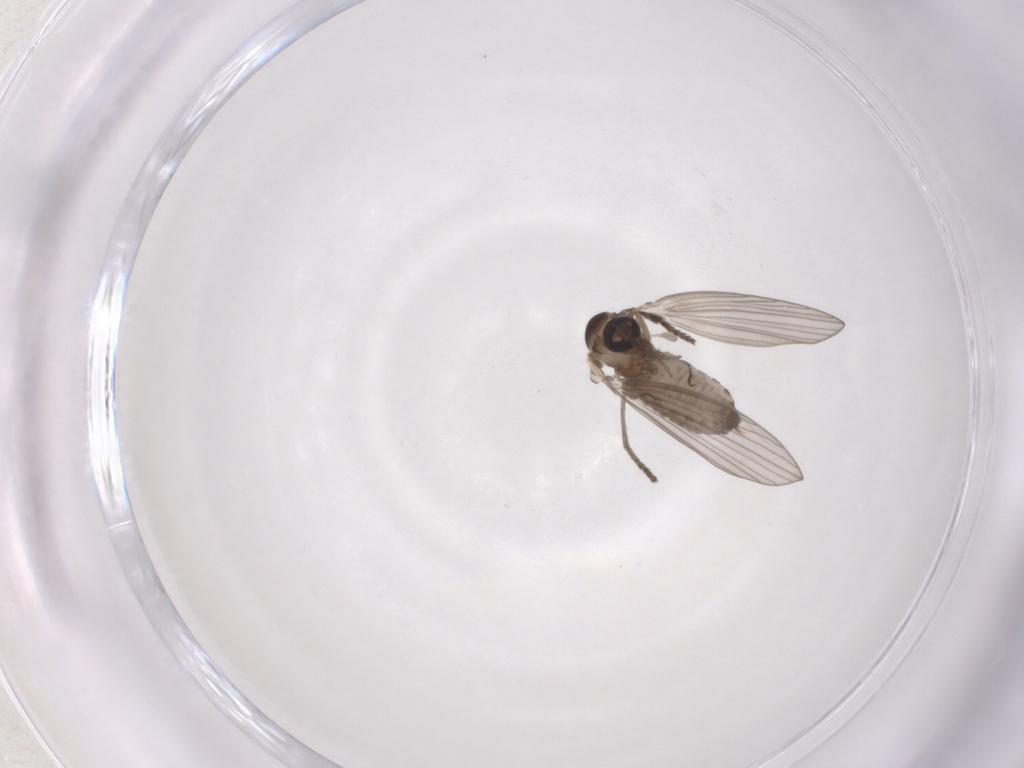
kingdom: Animalia
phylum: Arthropoda
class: Insecta
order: Diptera
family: Psychodidae
